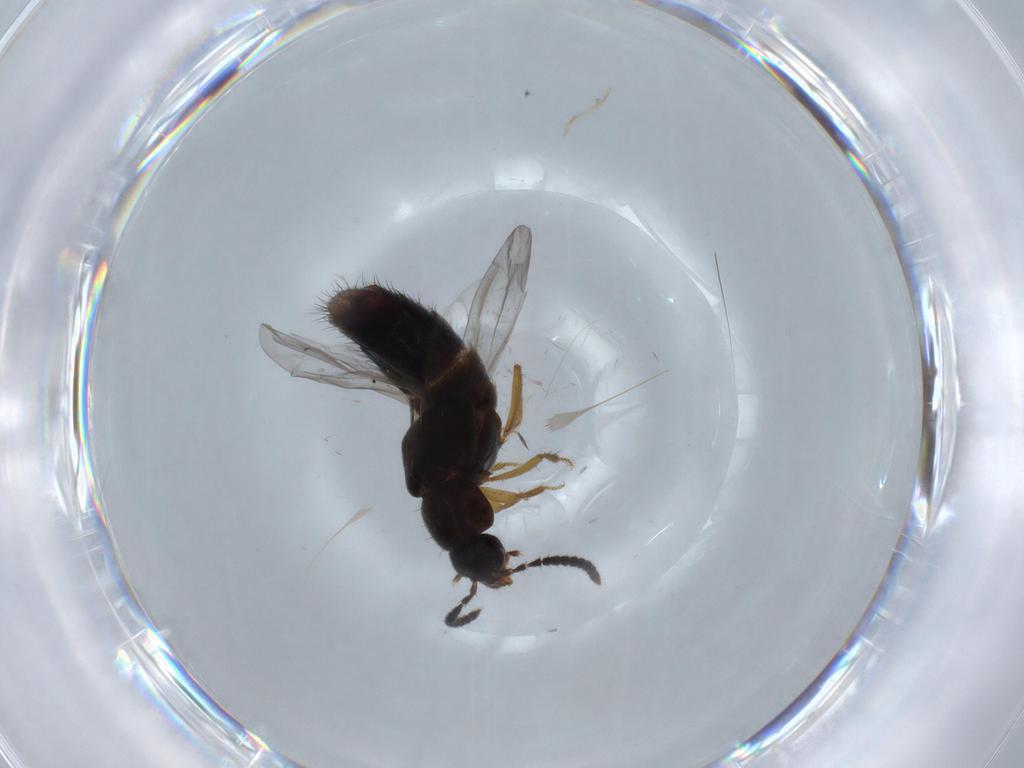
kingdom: Animalia
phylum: Arthropoda
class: Insecta
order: Coleoptera
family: Staphylinidae
